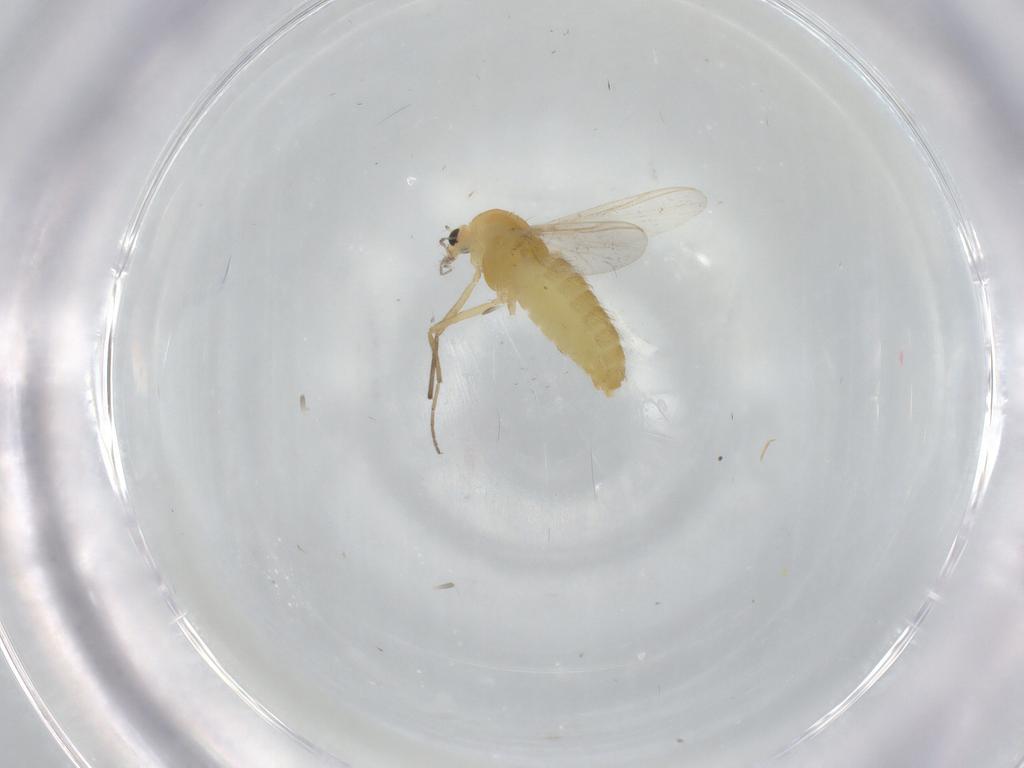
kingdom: Animalia
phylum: Arthropoda
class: Insecta
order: Diptera
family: Chironomidae
